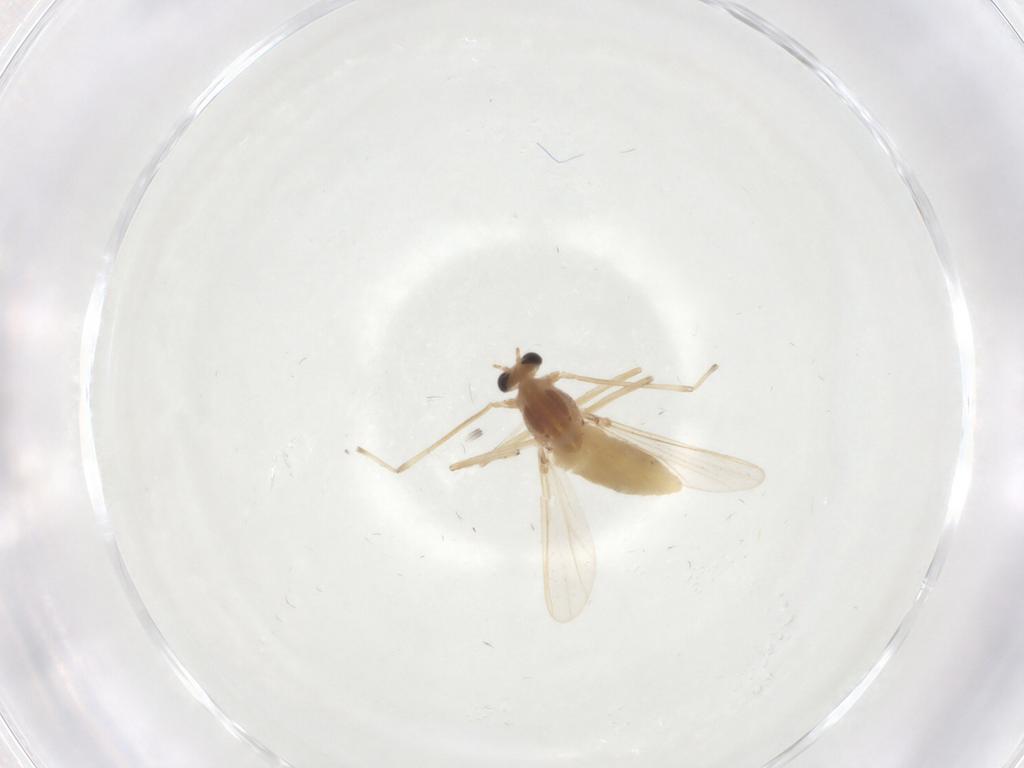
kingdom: Animalia
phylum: Arthropoda
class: Insecta
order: Diptera
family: Chironomidae
